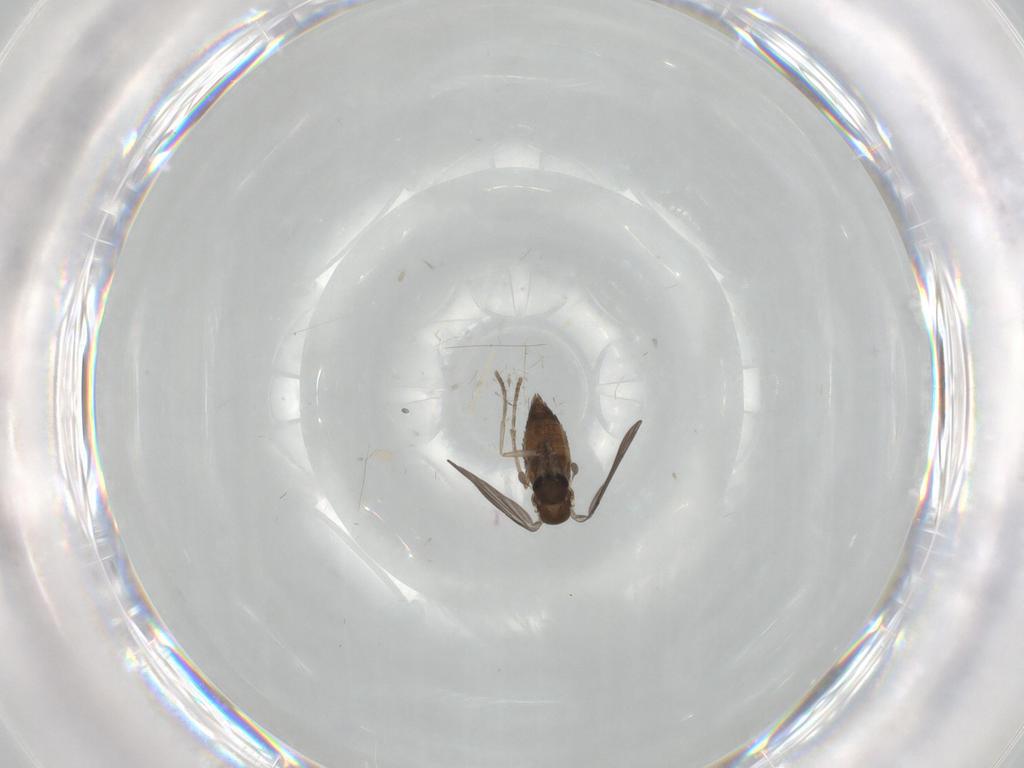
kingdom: Animalia
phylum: Arthropoda
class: Insecta
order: Diptera
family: Chironomidae
